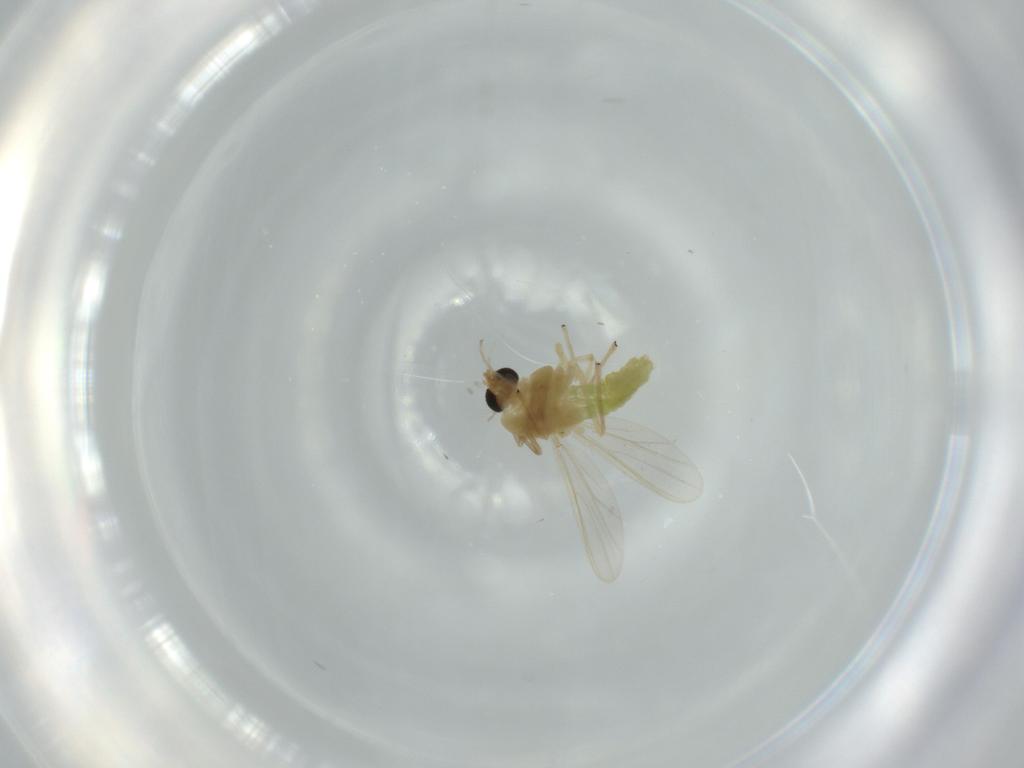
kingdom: Animalia
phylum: Arthropoda
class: Insecta
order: Diptera
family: Chironomidae
